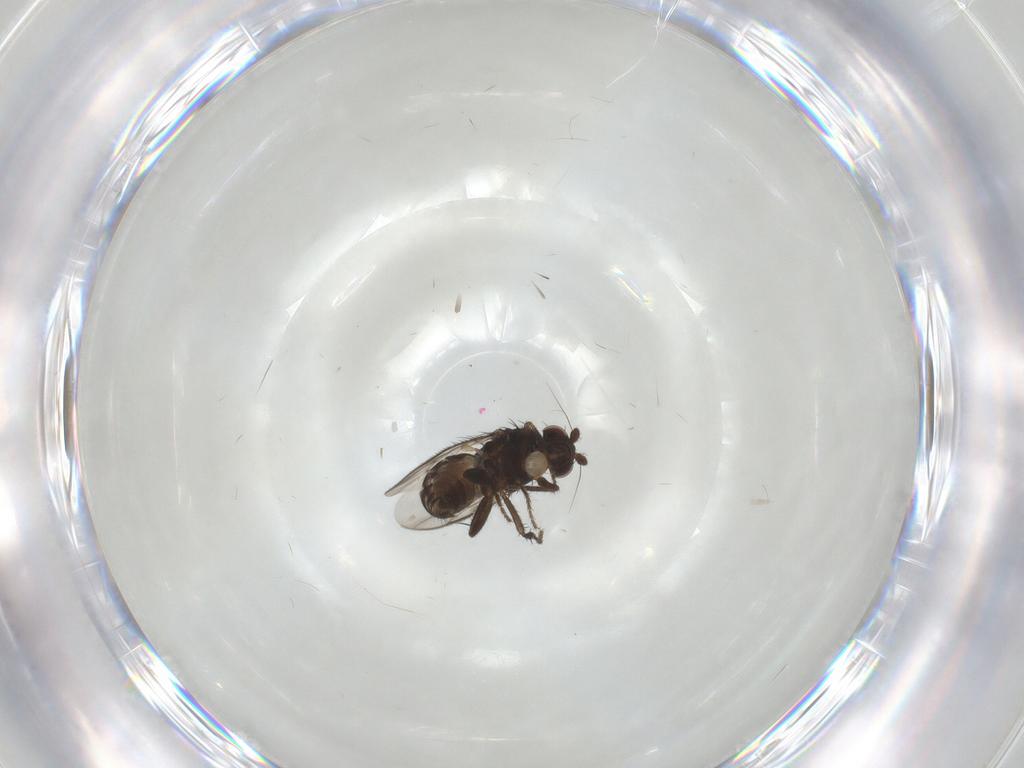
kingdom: Animalia
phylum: Arthropoda
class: Insecta
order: Diptera
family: Sphaeroceridae
